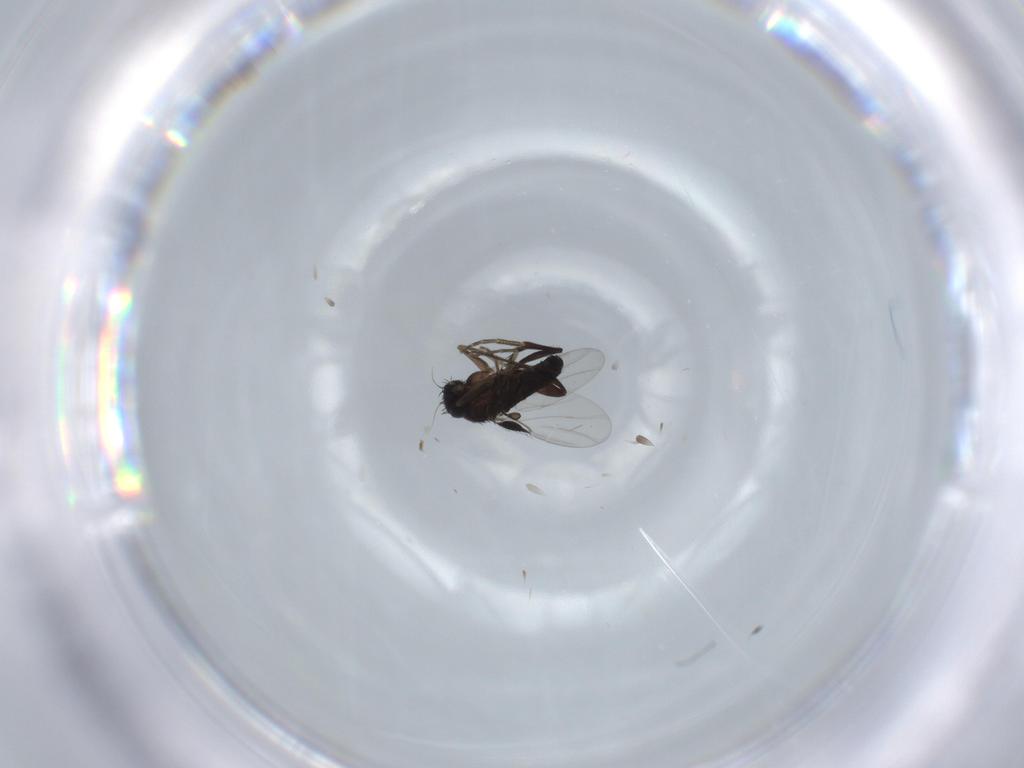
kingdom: Animalia
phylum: Arthropoda
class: Insecta
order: Diptera
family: Phoridae
